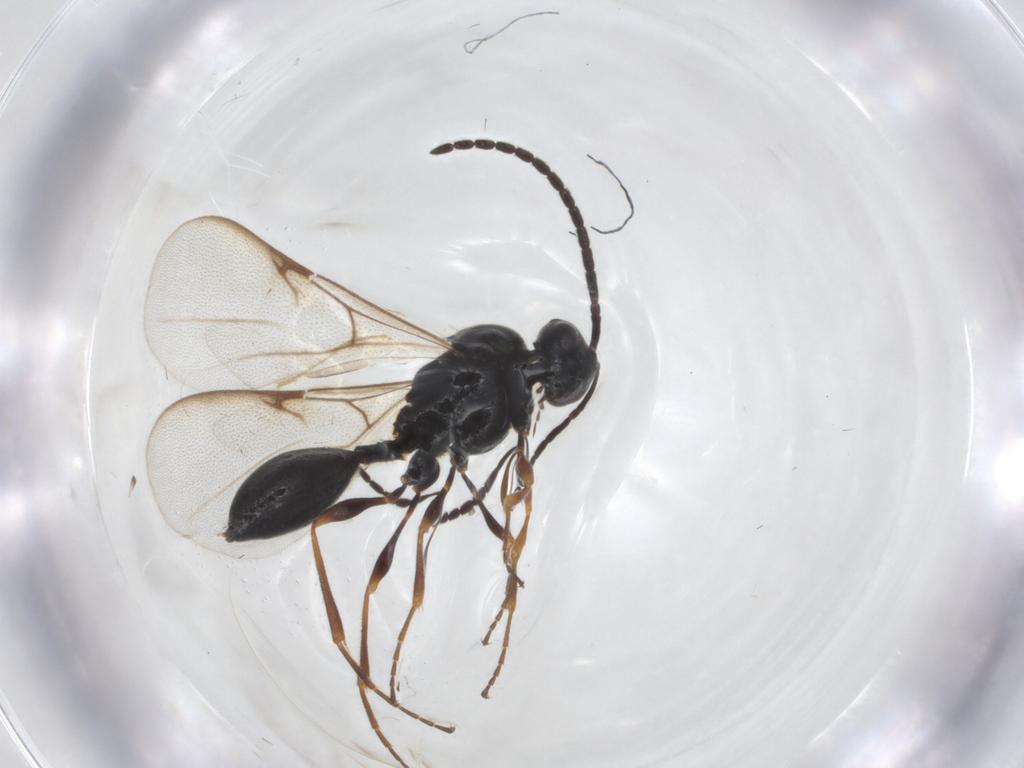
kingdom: Animalia
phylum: Arthropoda
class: Insecta
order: Hymenoptera
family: Diapriidae
